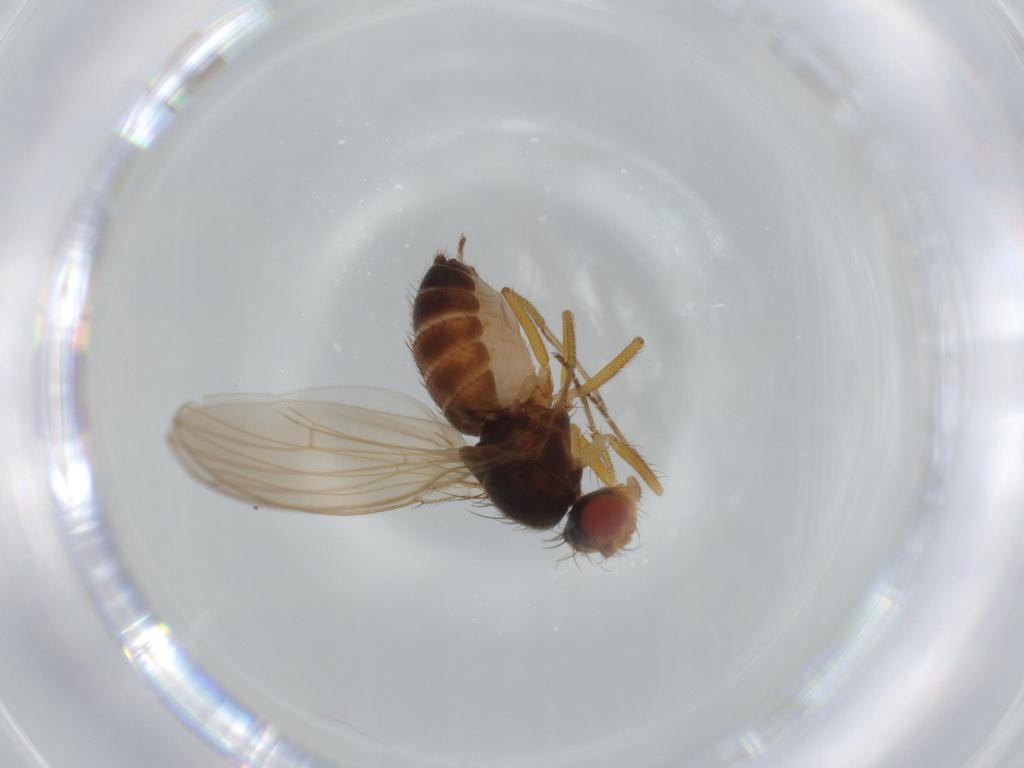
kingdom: Animalia
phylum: Arthropoda
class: Insecta
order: Diptera
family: Drosophilidae
